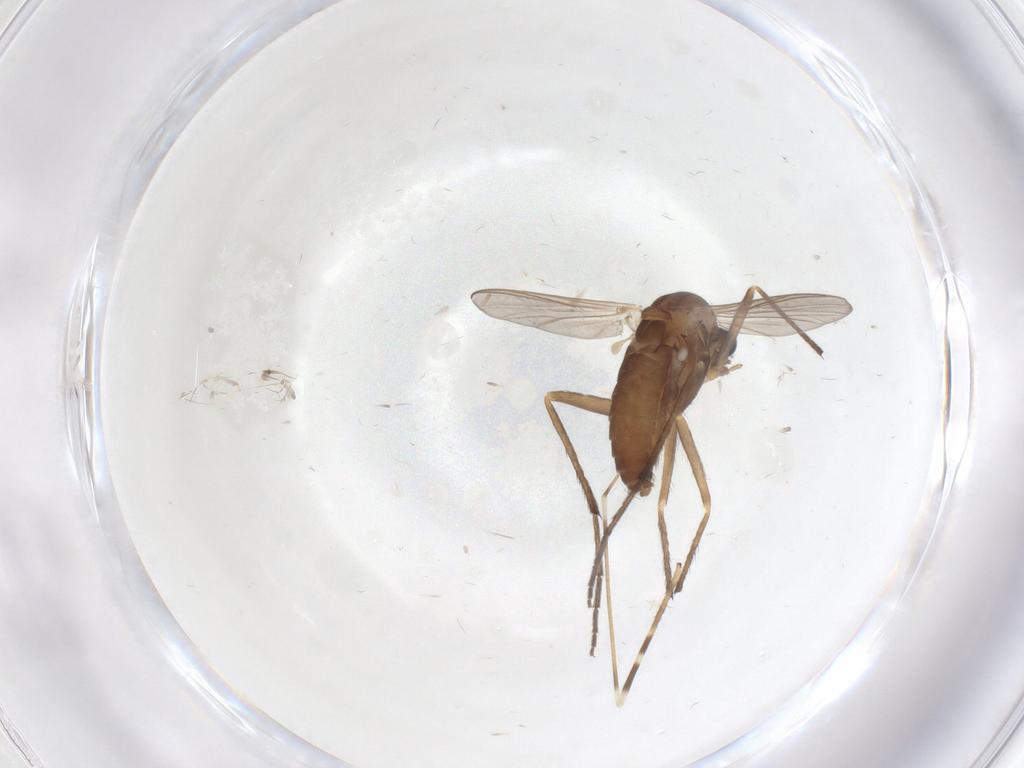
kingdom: Animalia
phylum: Arthropoda
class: Insecta
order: Diptera
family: Chironomidae
